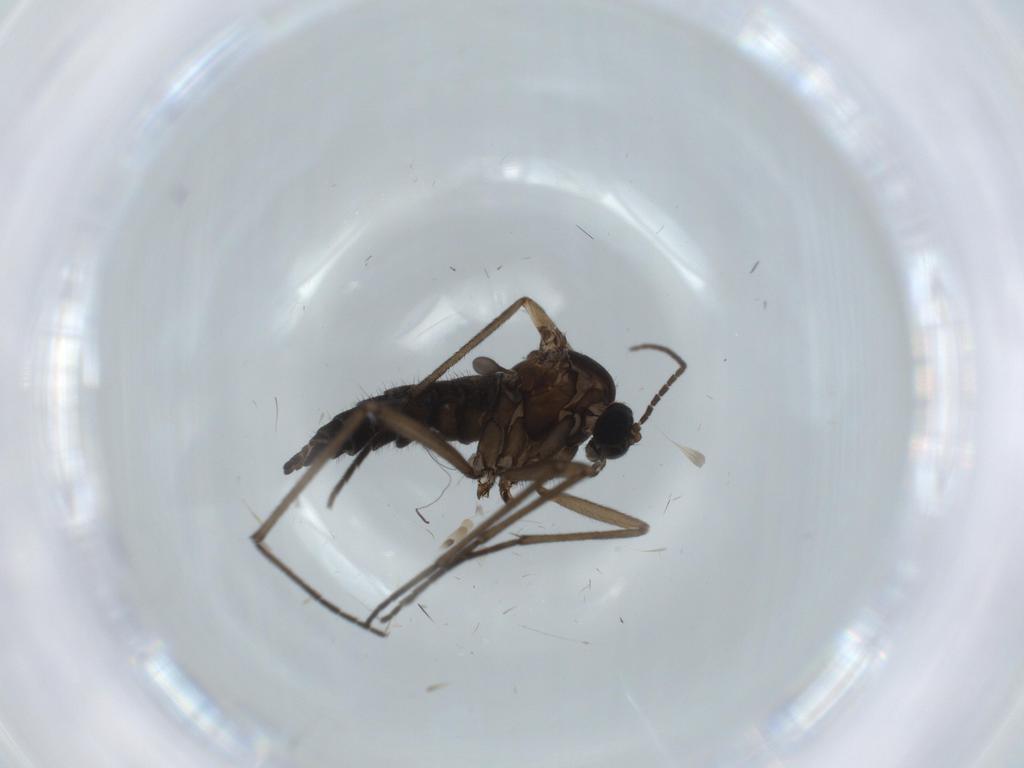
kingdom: Animalia
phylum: Arthropoda
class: Insecta
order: Diptera
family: Sciaridae
